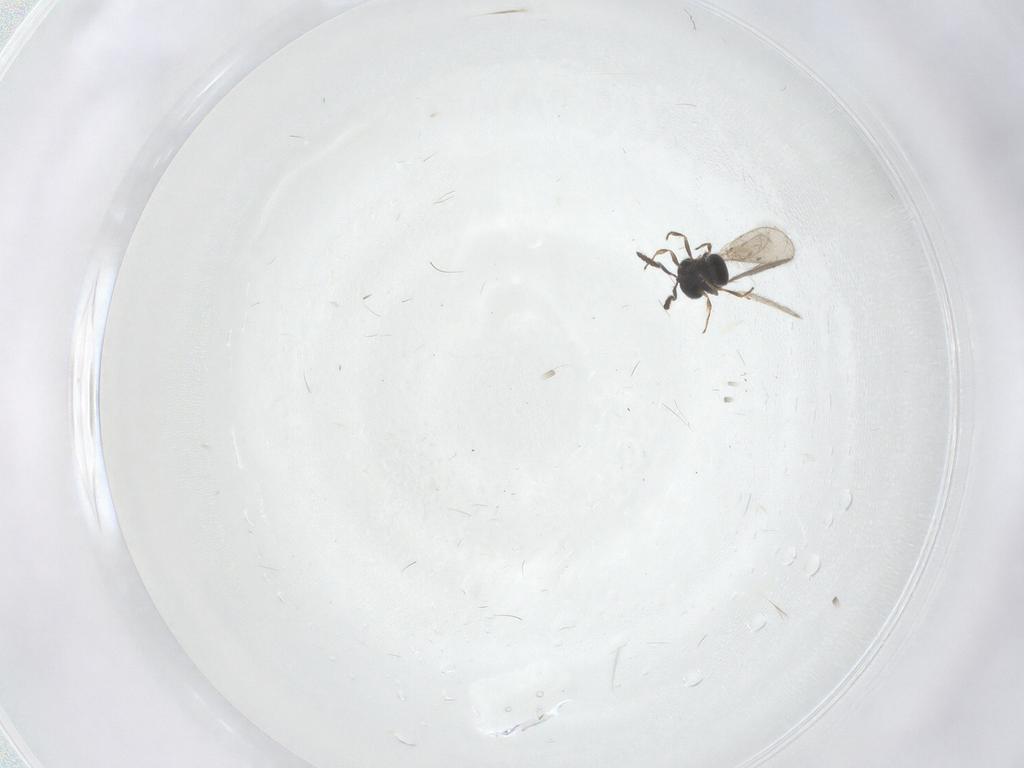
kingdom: Animalia
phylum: Arthropoda
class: Insecta
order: Hymenoptera
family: Scelionidae
